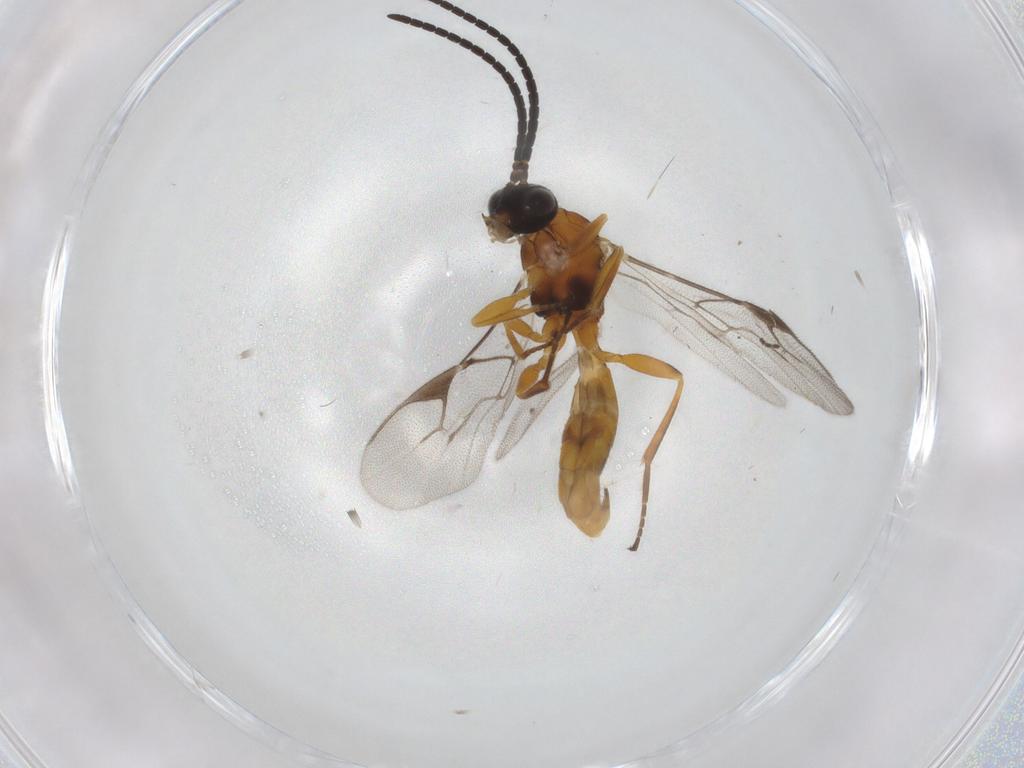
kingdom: Animalia
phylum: Arthropoda
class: Insecta
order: Hymenoptera
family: Braconidae
